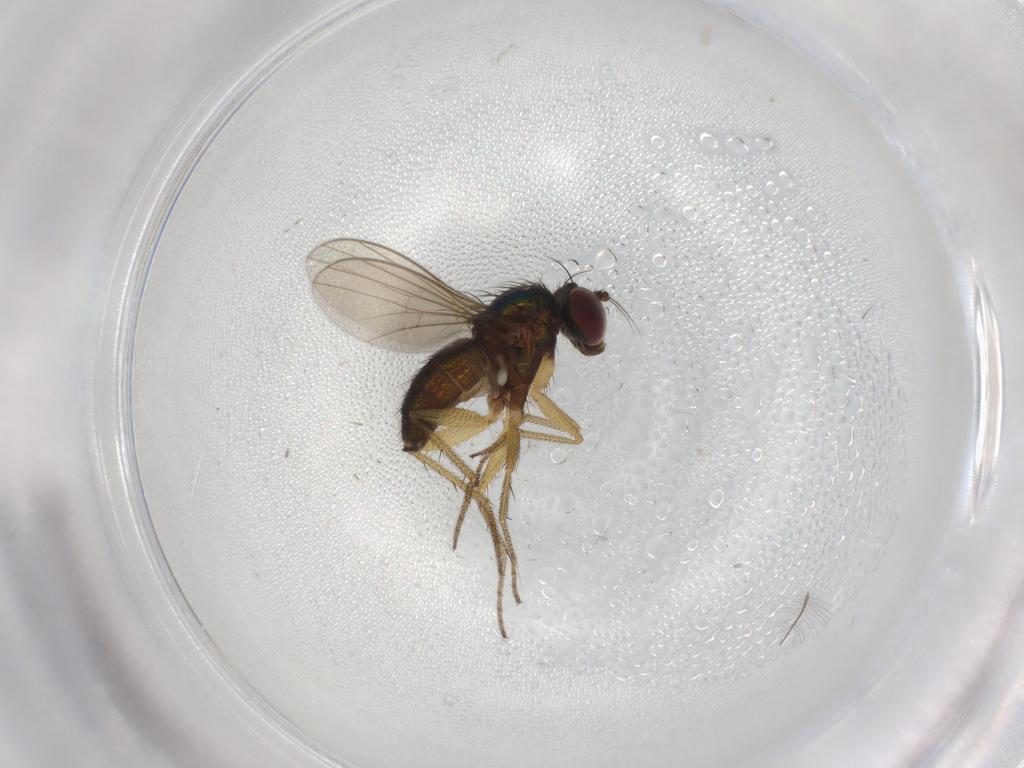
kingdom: Animalia
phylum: Arthropoda
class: Insecta
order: Diptera
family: Dolichopodidae
